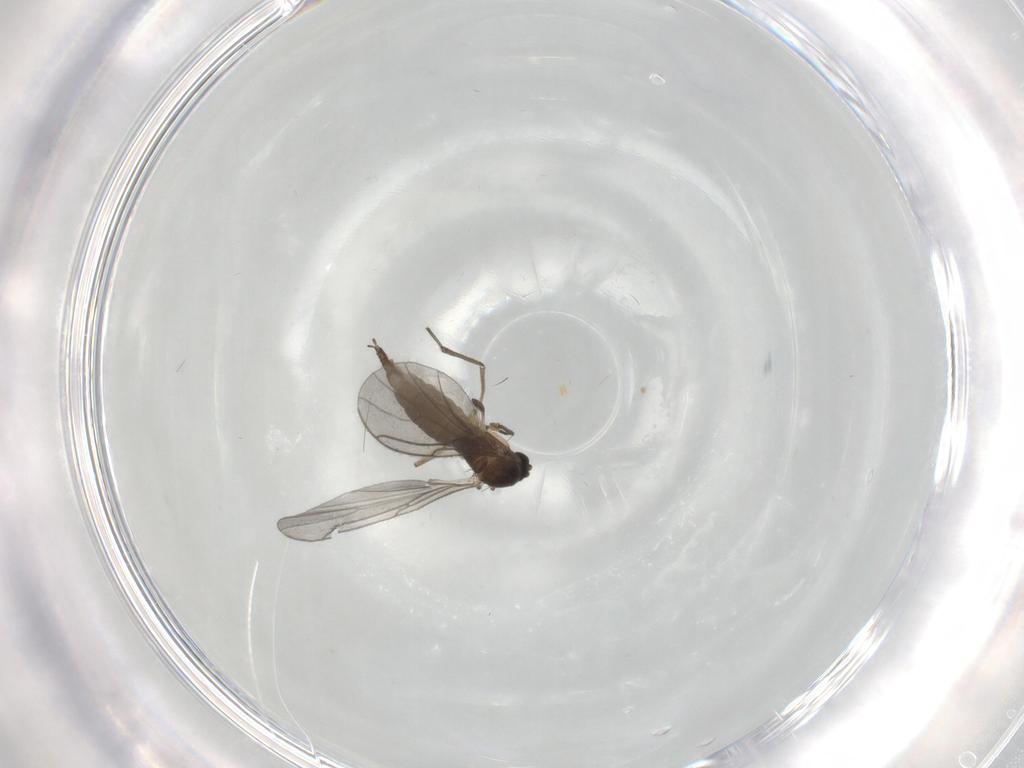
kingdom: Animalia
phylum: Arthropoda
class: Insecta
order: Diptera
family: Sciaridae
